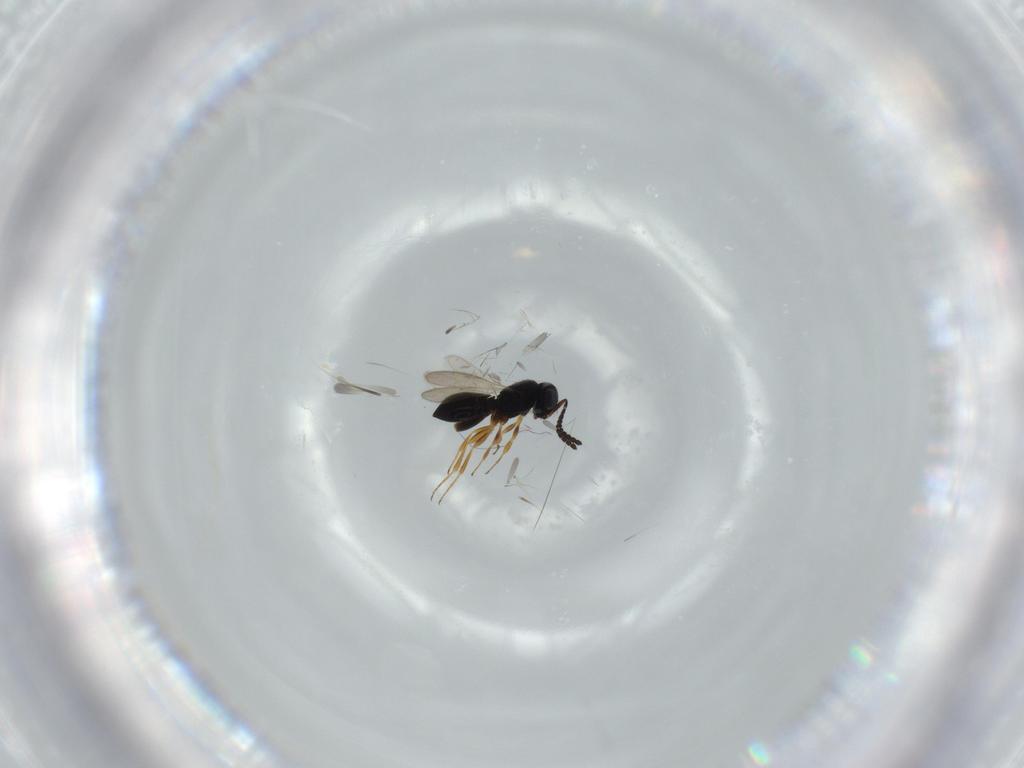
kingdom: Animalia
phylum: Arthropoda
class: Insecta
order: Hymenoptera
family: Scelionidae
